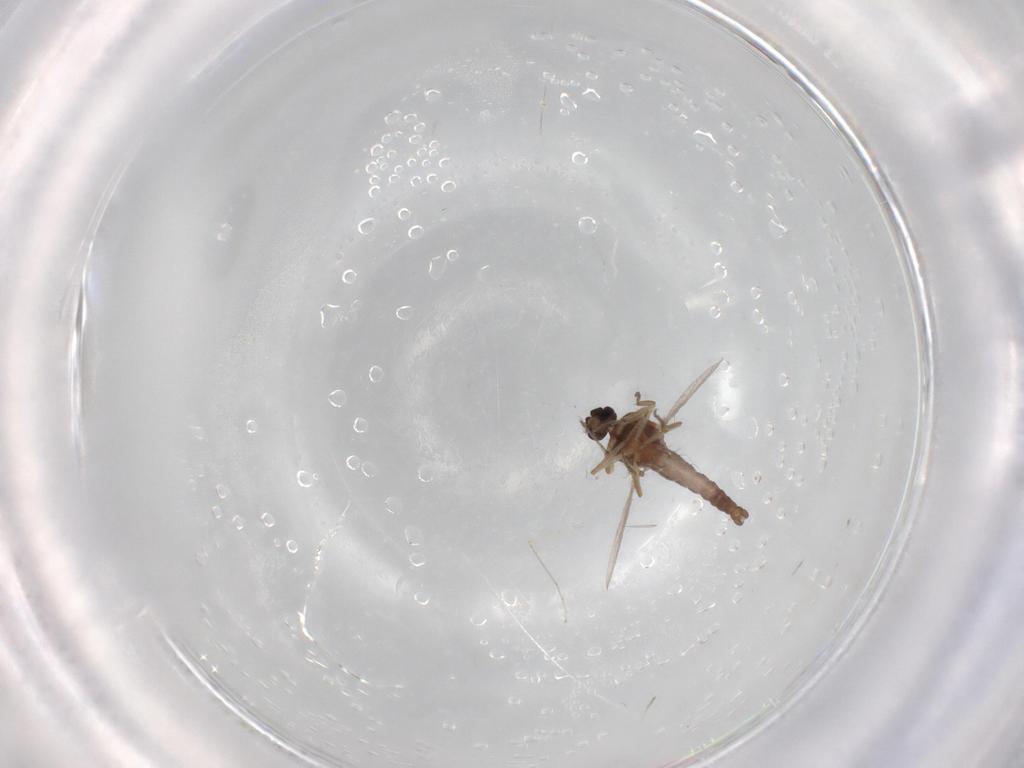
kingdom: Animalia
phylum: Arthropoda
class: Insecta
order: Diptera
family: Ceratopogonidae
